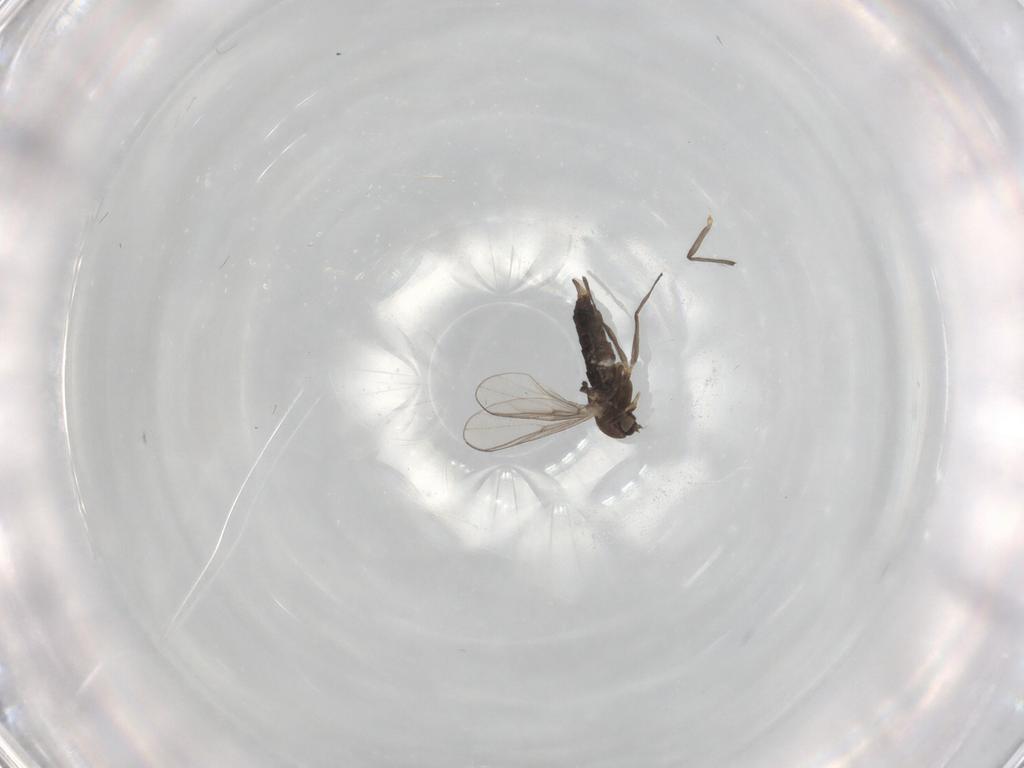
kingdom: Animalia
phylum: Arthropoda
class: Insecta
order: Diptera
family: Chironomidae
